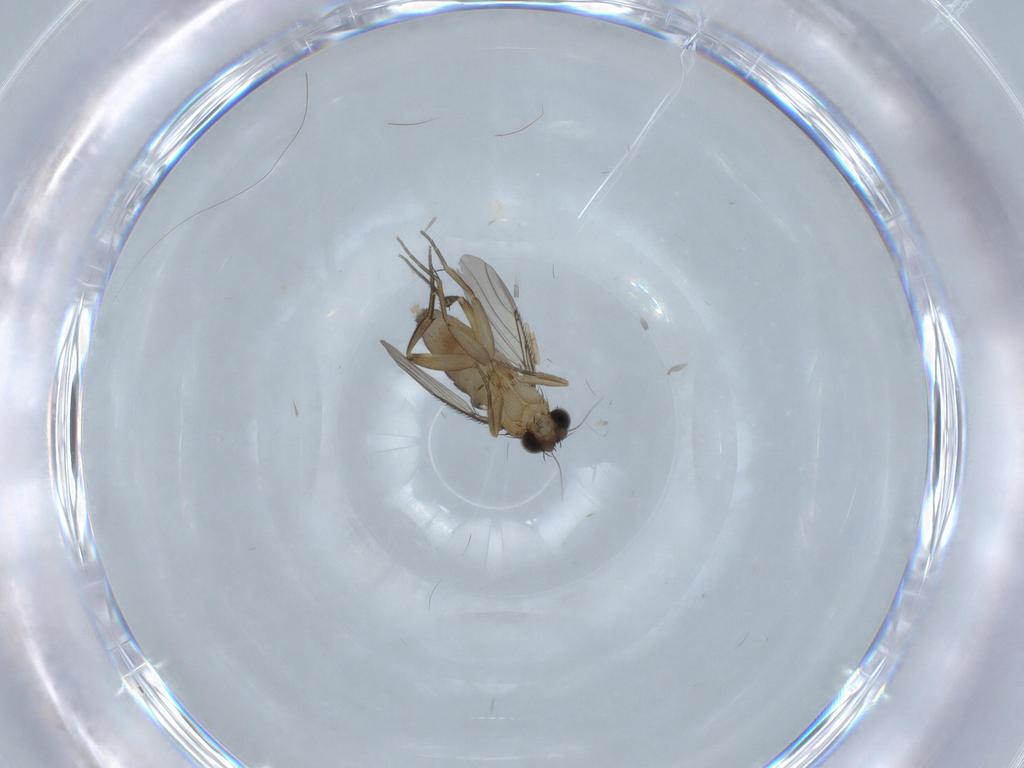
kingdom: Animalia
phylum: Arthropoda
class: Insecta
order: Diptera
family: Phoridae
